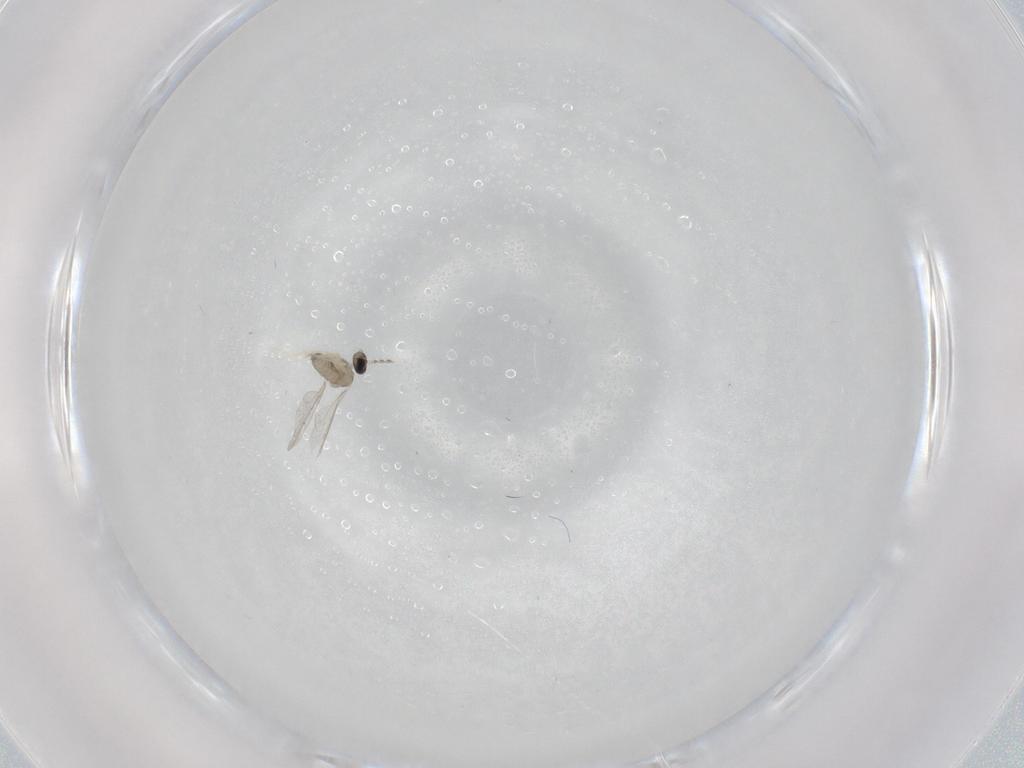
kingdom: Animalia
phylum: Arthropoda
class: Insecta
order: Diptera
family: Cecidomyiidae
